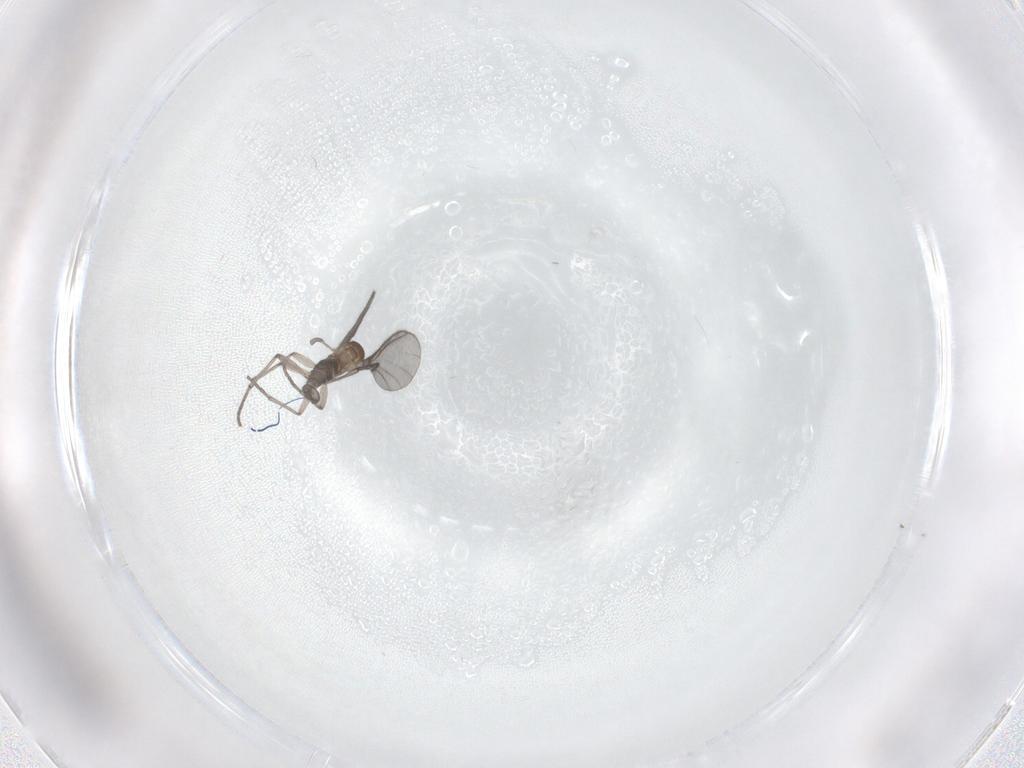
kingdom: Animalia
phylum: Arthropoda
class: Insecta
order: Diptera
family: Sciaridae
